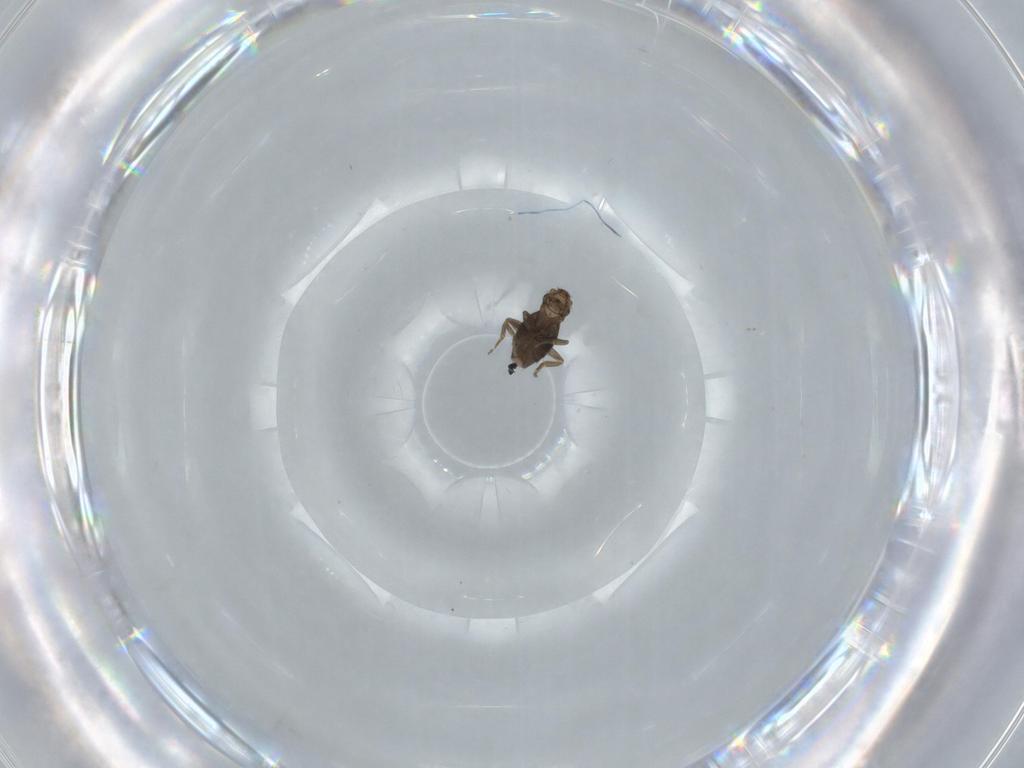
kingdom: Animalia
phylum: Arthropoda
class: Insecta
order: Diptera
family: Phoridae
